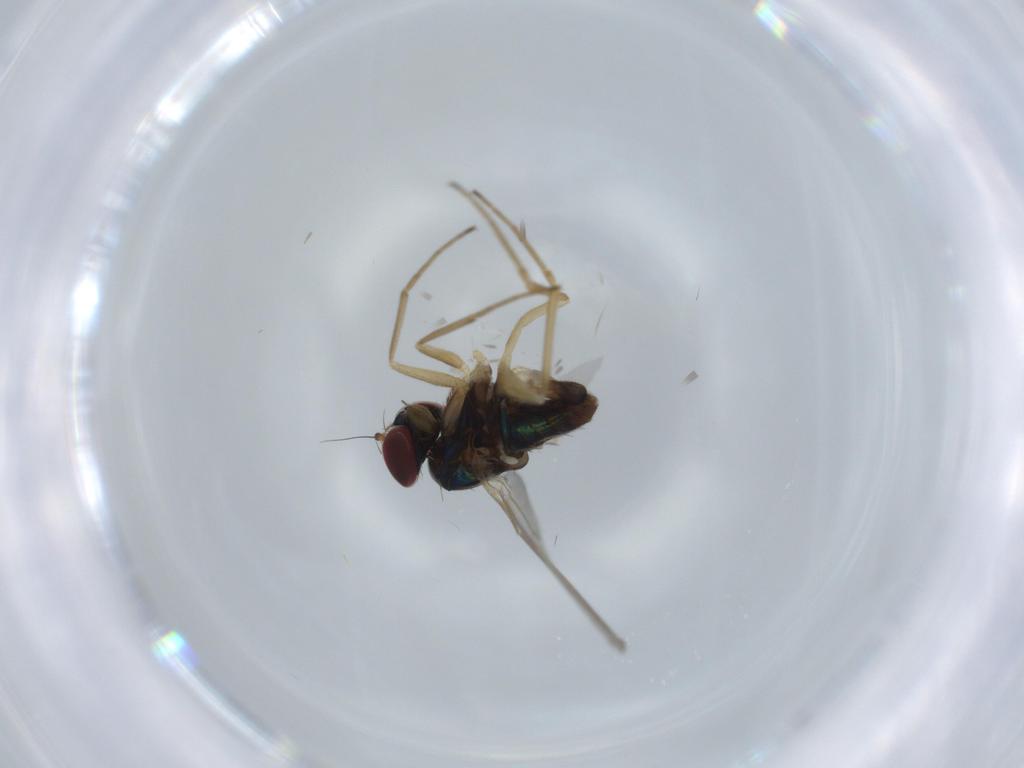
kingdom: Animalia
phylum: Arthropoda
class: Insecta
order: Diptera
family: Dolichopodidae
